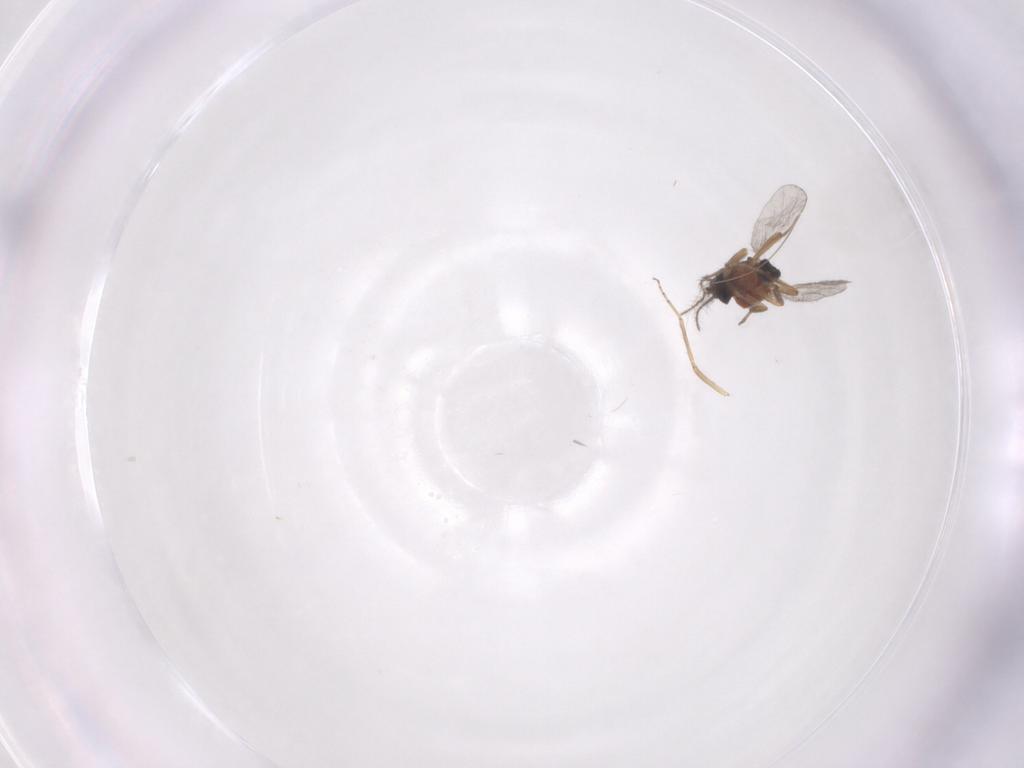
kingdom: Animalia
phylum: Arthropoda
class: Insecta
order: Diptera
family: Ceratopogonidae
